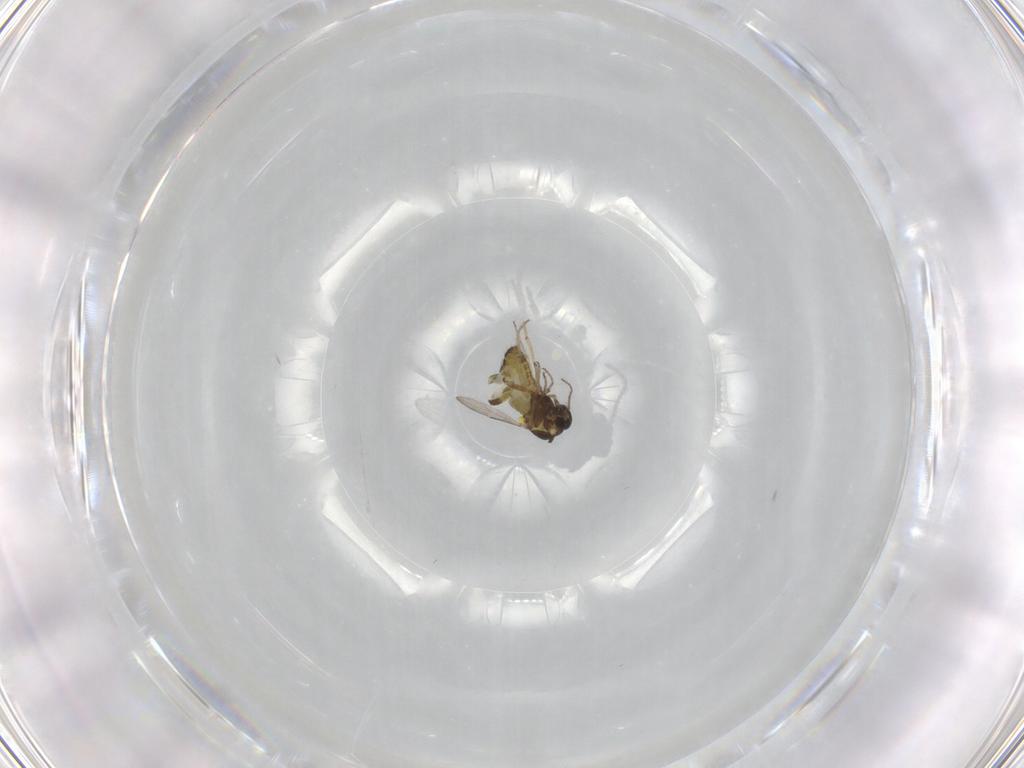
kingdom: Animalia
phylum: Arthropoda
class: Insecta
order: Diptera
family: Ceratopogonidae
